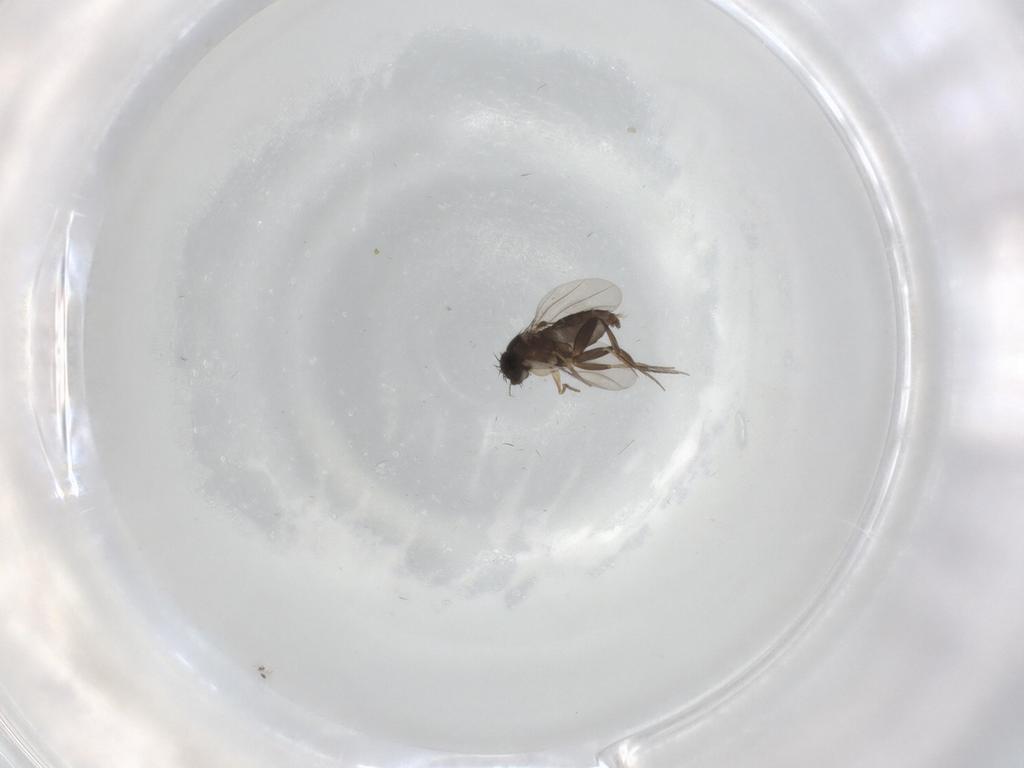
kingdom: Animalia
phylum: Arthropoda
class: Insecta
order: Diptera
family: Phoridae
